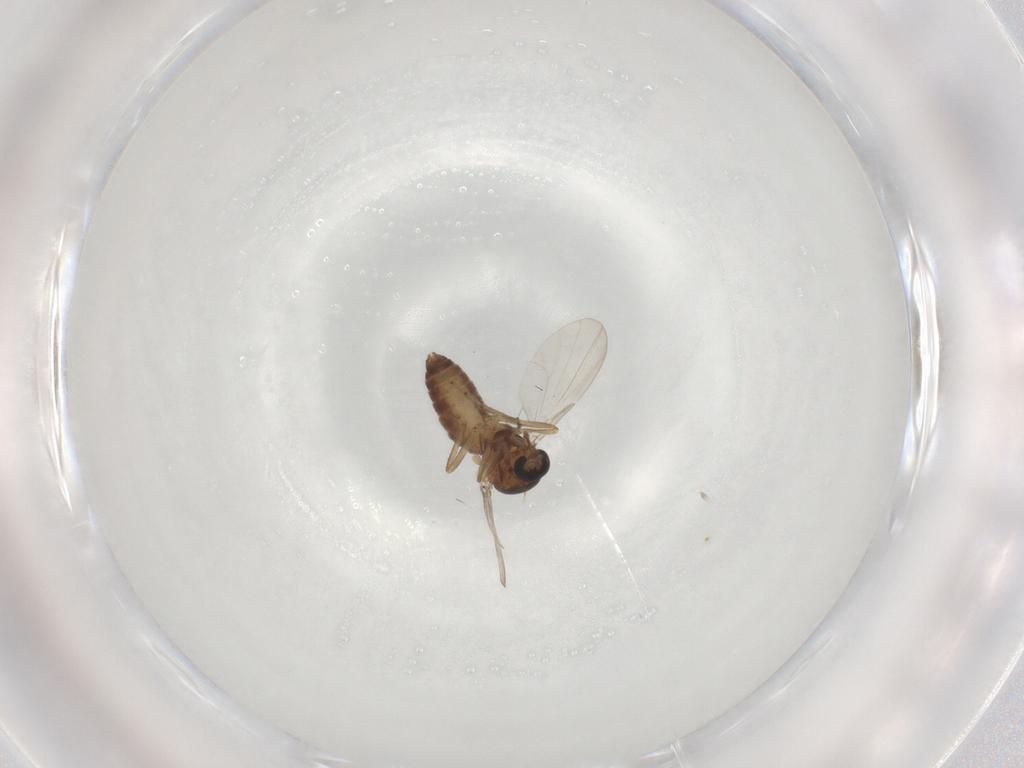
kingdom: Animalia
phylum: Arthropoda
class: Insecta
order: Diptera
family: Ceratopogonidae
